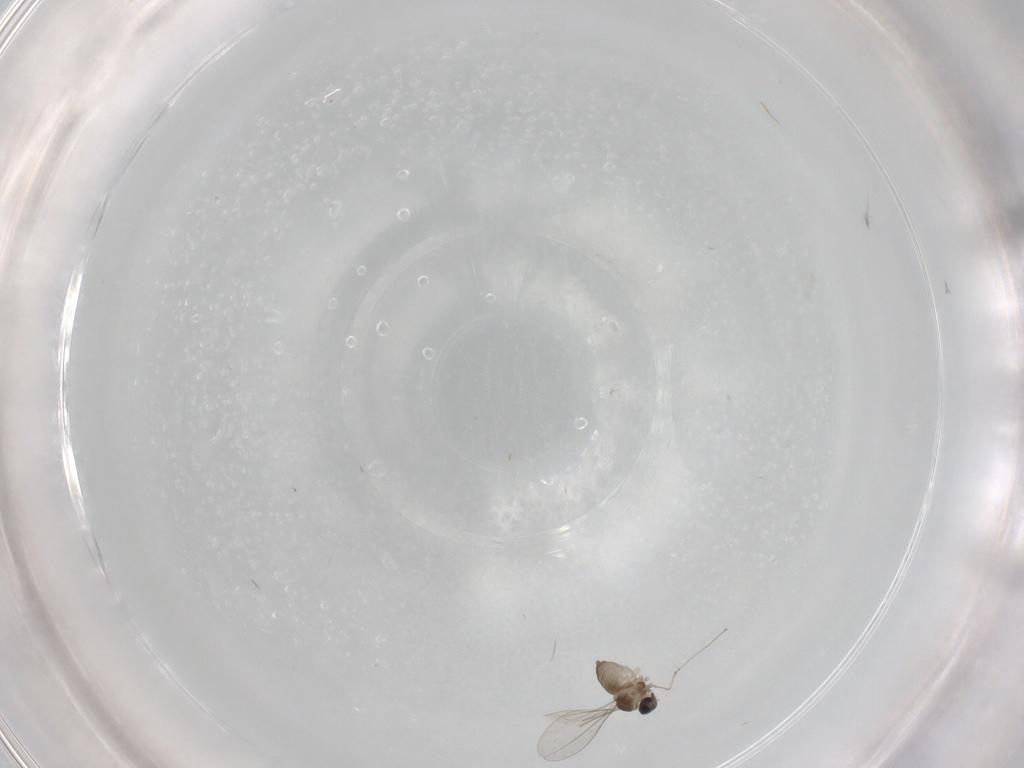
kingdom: Animalia
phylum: Arthropoda
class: Insecta
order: Diptera
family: Cecidomyiidae
